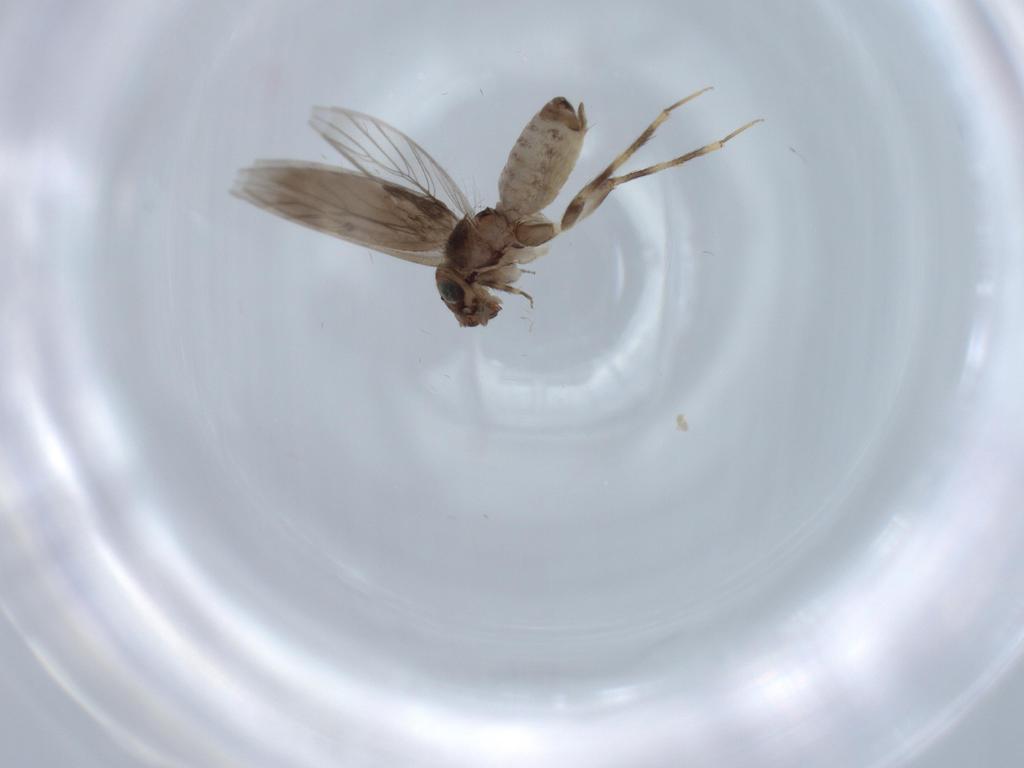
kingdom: Animalia
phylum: Arthropoda
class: Insecta
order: Psocodea
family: Lepidopsocidae
